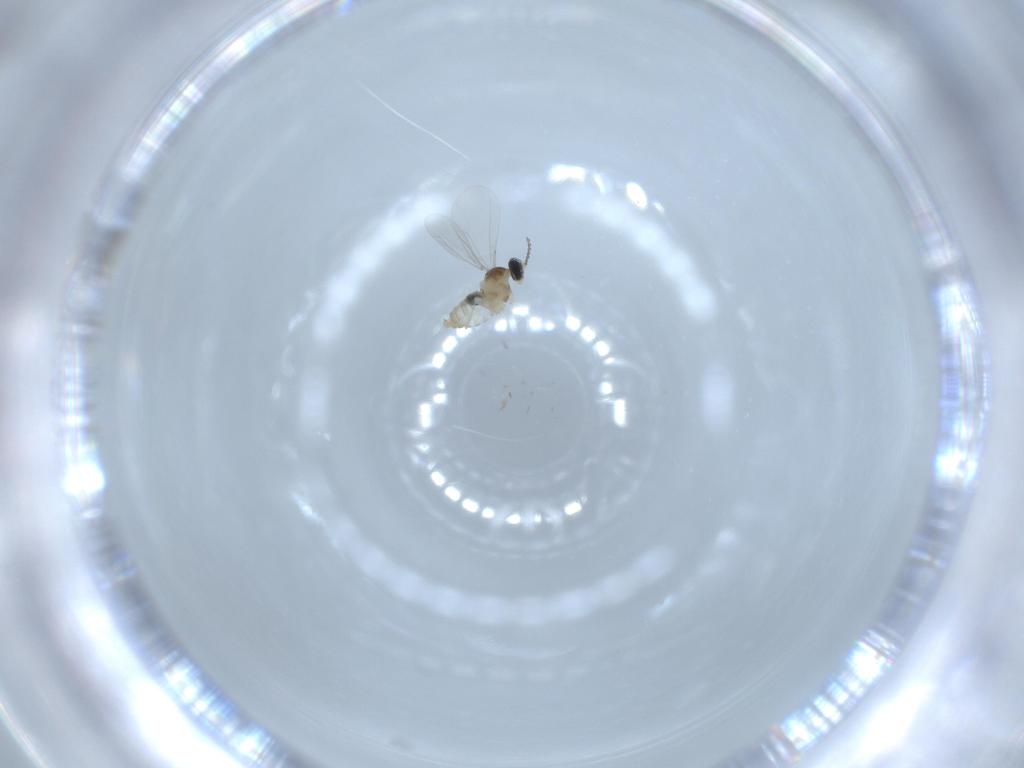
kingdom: Animalia
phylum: Arthropoda
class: Insecta
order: Diptera
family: Cecidomyiidae
